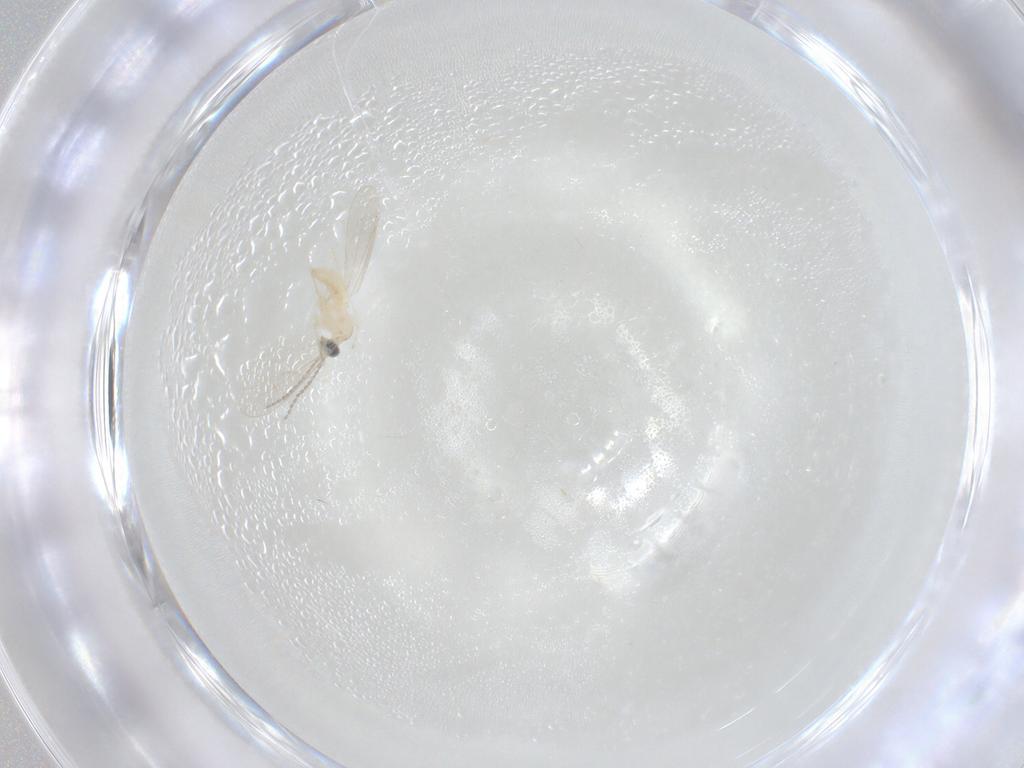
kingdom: Animalia
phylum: Arthropoda
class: Insecta
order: Diptera
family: Cecidomyiidae
